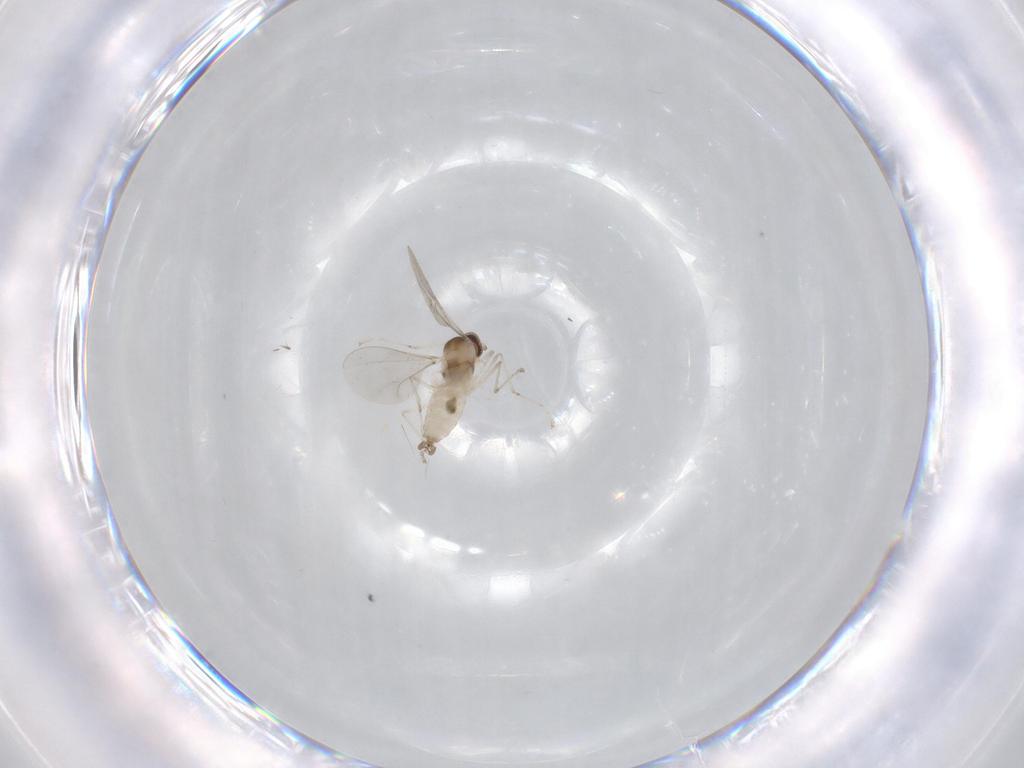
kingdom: Animalia
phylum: Arthropoda
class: Insecta
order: Diptera
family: Cecidomyiidae
